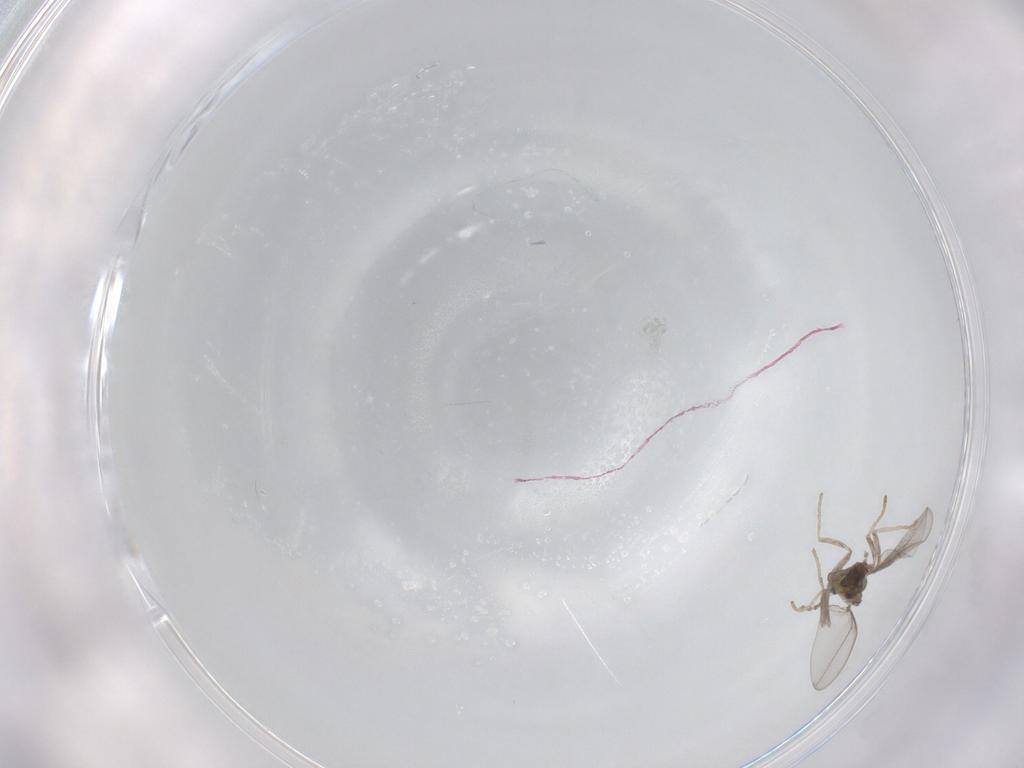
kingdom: Animalia
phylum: Arthropoda
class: Insecta
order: Diptera
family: Cecidomyiidae
